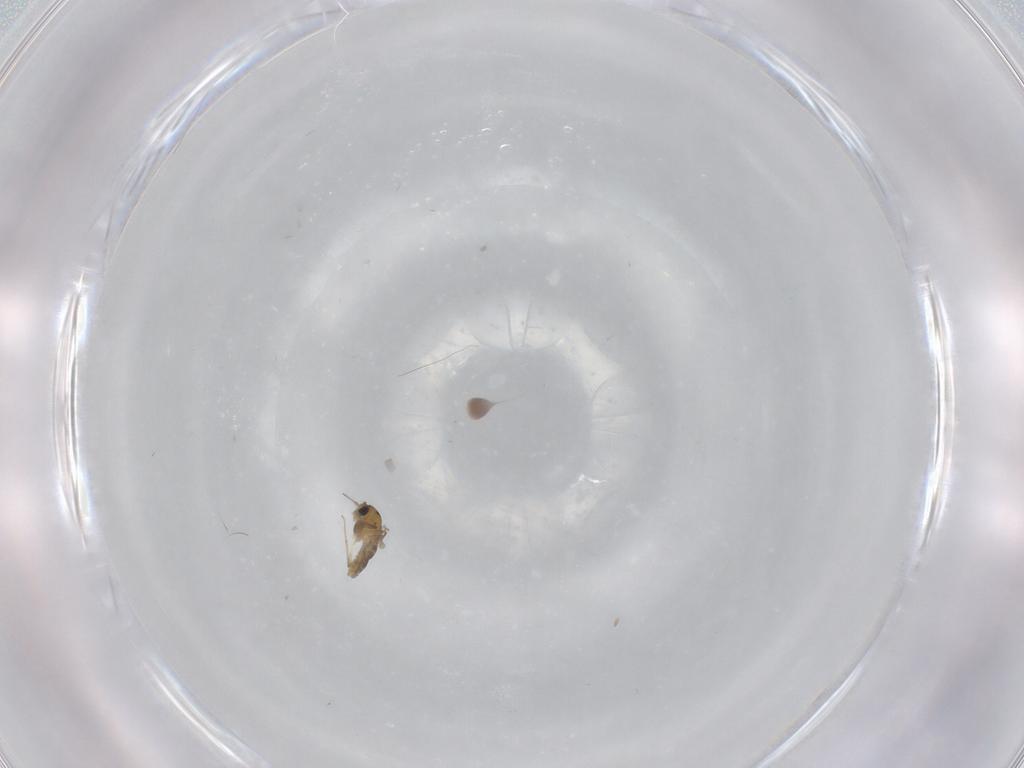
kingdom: Animalia
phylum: Arthropoda
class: Insecta
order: Diptera
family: Chironomidae
